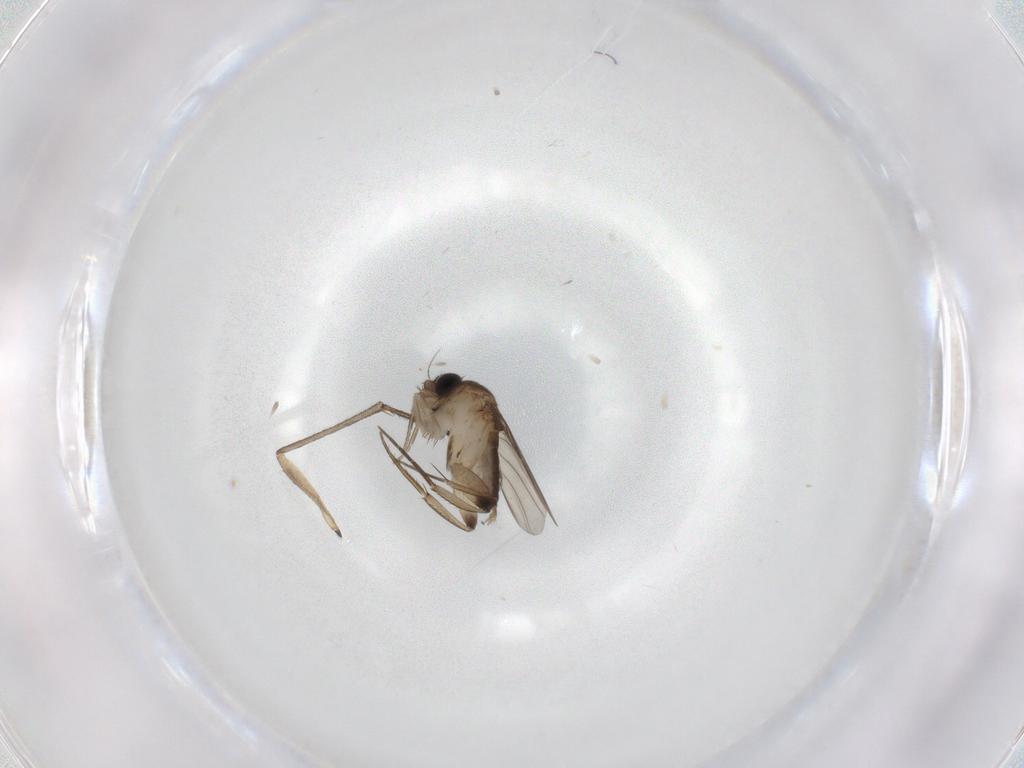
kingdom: Animalia
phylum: Arthropoda
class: Insecta
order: Diptera
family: Phoridae
